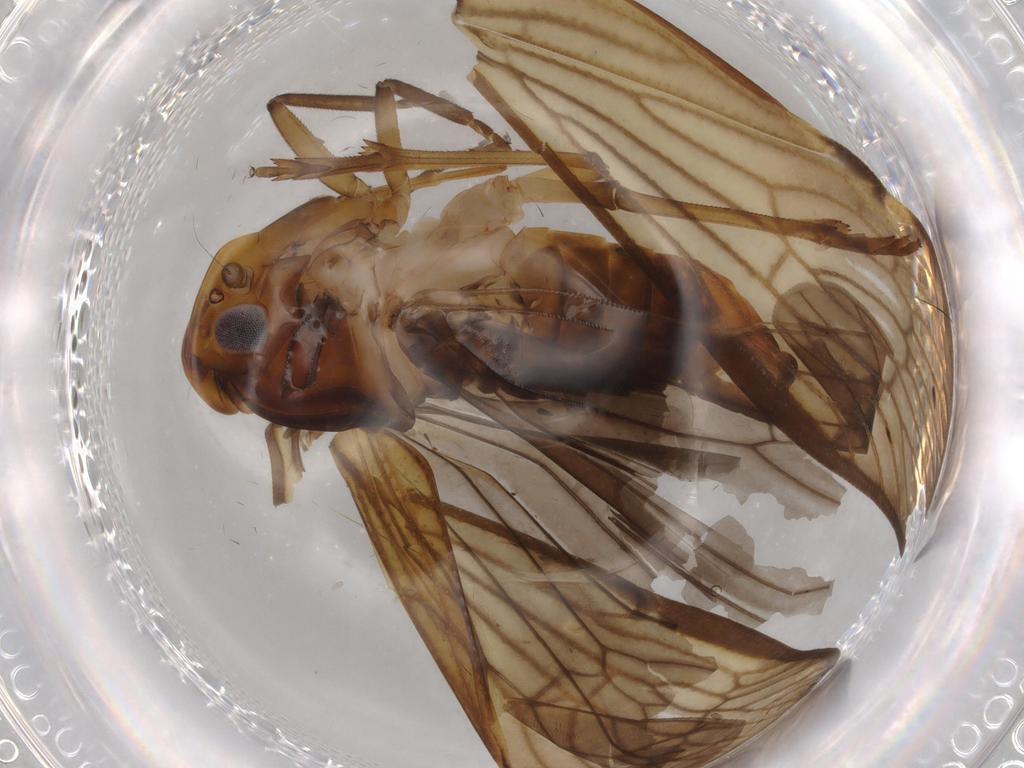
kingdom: Animalia
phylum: Arthropoda
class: Insecta
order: Hemiptera
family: Cixiidae
